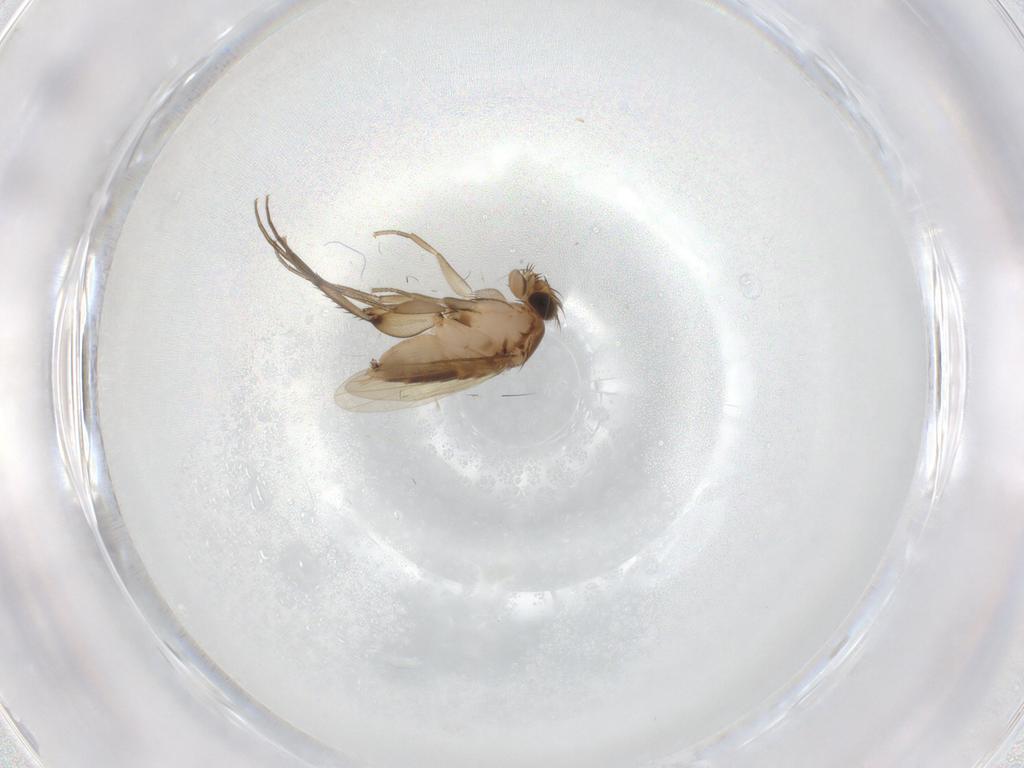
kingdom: Animalia
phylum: Arthropoda
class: Insecta
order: Diptera
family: Phoridae
